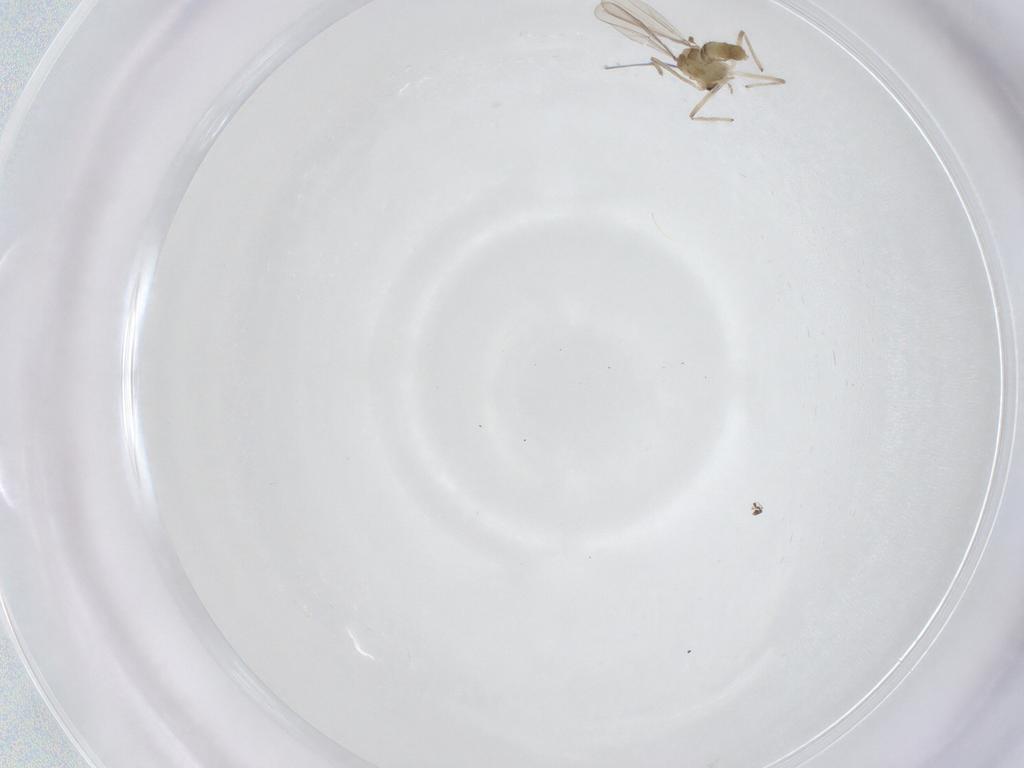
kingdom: Animalia
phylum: Arthropoda
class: Insecta
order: Diptera
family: Chironomidae
